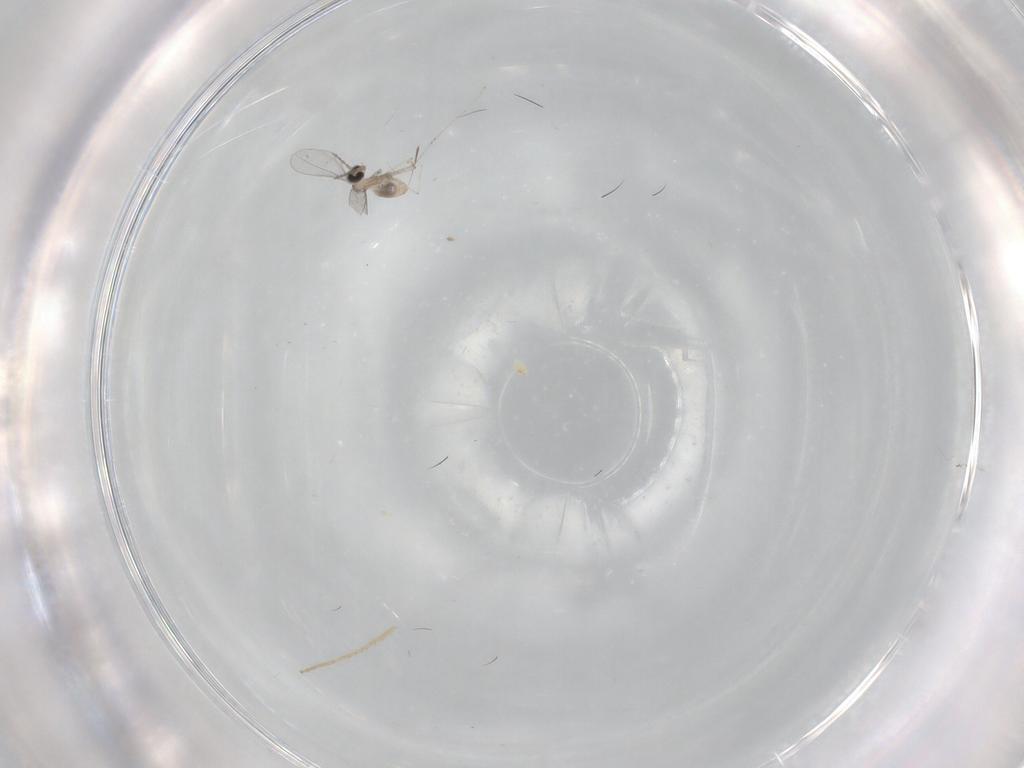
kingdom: Animalia
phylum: Arthropoda
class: Insecta
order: Diptera
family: Cecidomyiidae
